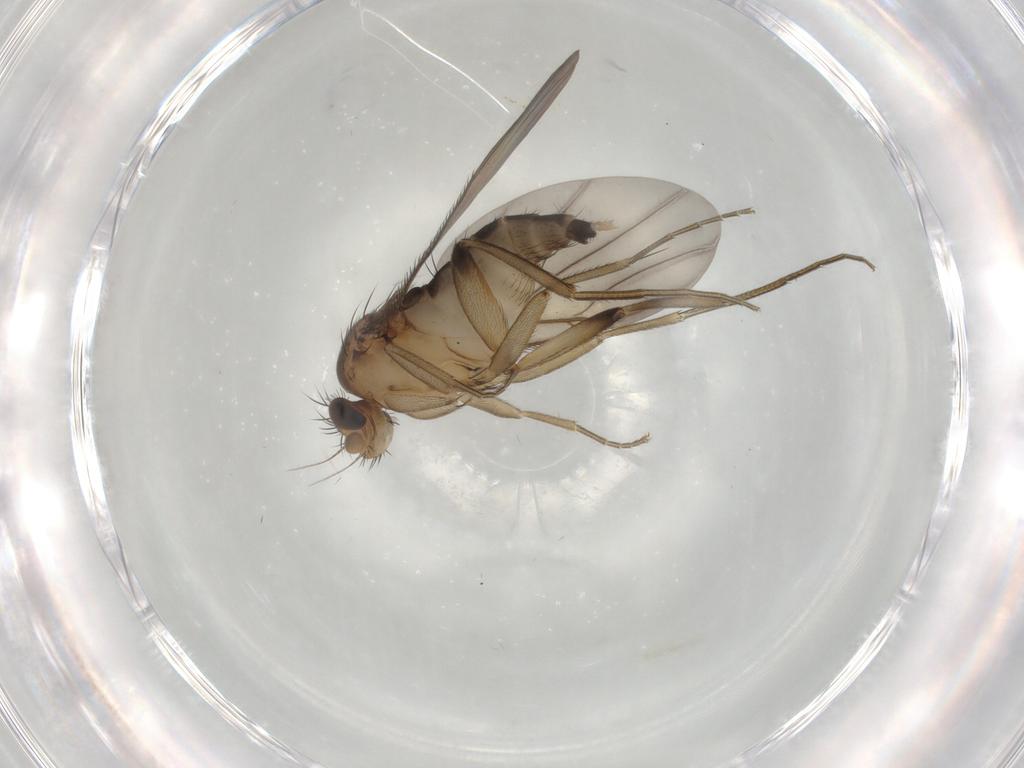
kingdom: Animalia
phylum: Arthropoda
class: Insecta
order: Diptera
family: Phoridae
